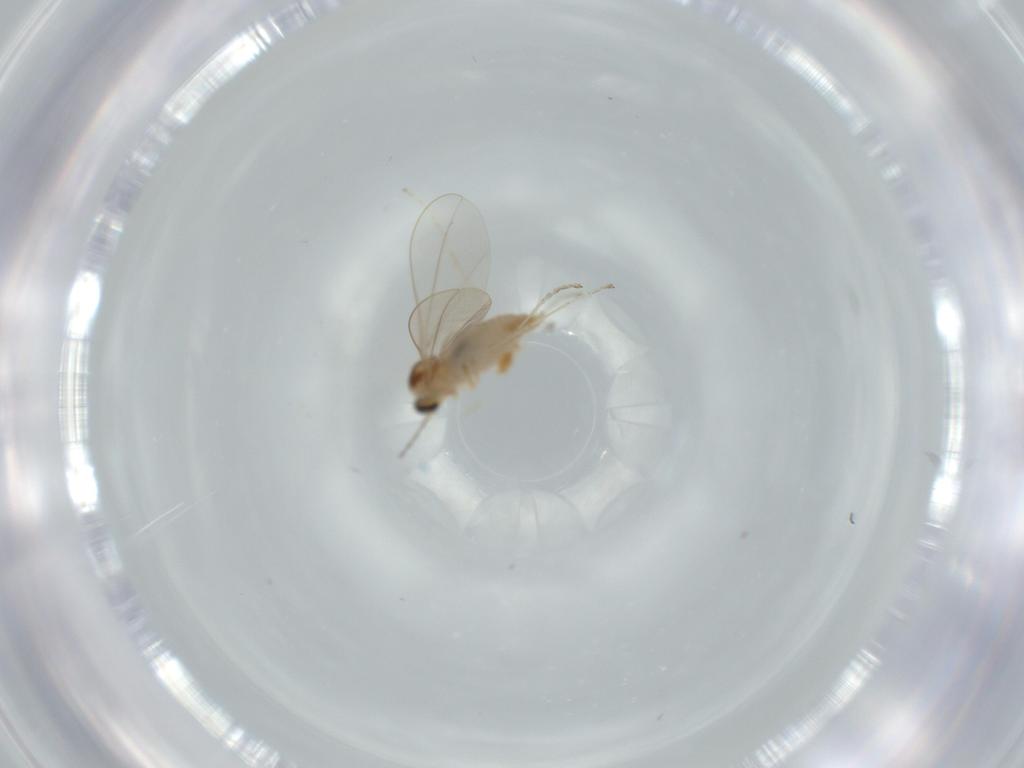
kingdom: Animalia
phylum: Arthropoda
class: Insecta
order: Diptera
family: Cecidomyiidae
